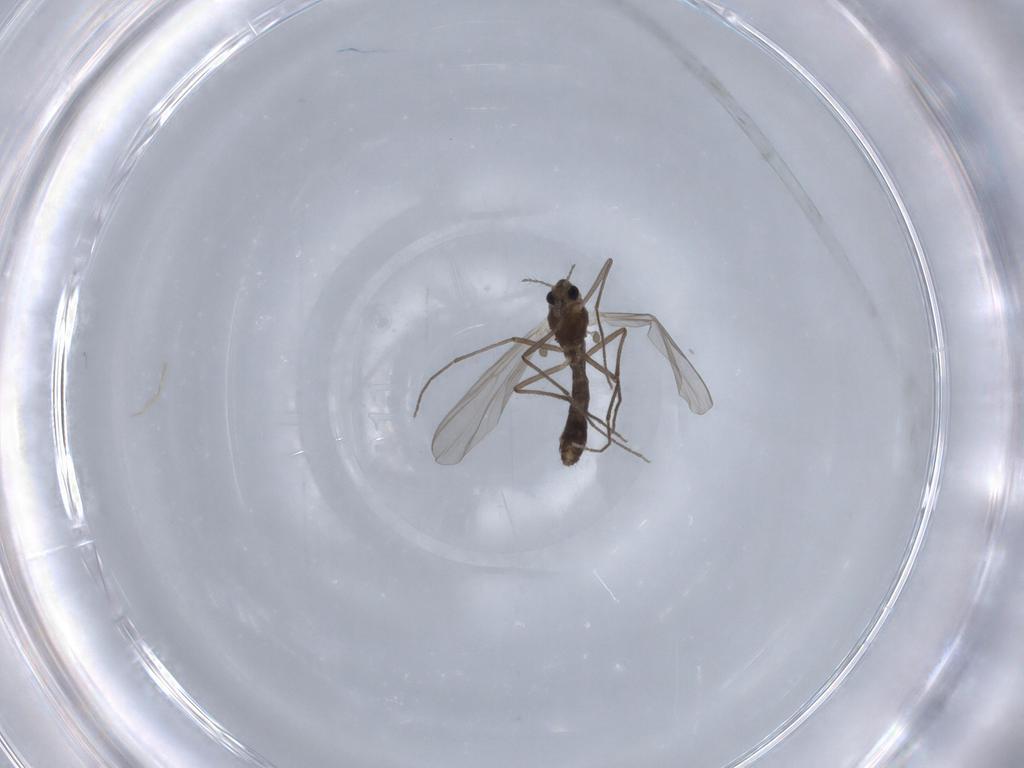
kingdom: Animalia
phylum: Arthropoda
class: Insecta
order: Diptera
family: Chironomidae
